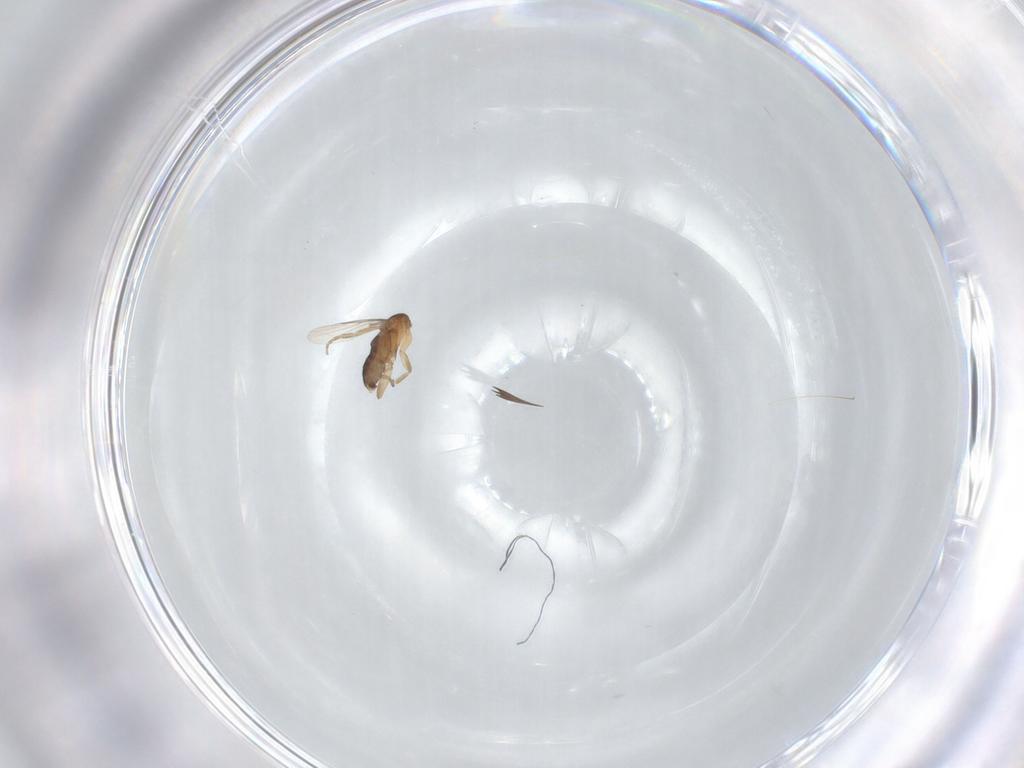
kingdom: Animalia
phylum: Arthropoda
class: Insecta
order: Diptera
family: Phoridae
